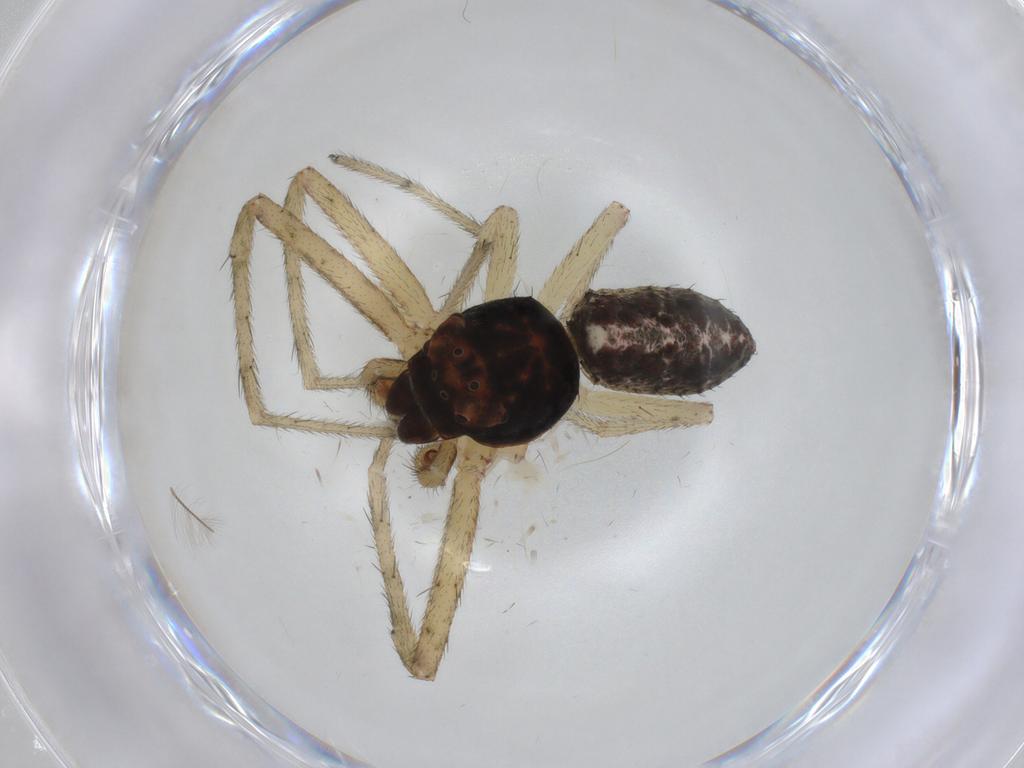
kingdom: Animalia
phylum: Arthropoda
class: Arachnida
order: Araneae
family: Thomisidae
